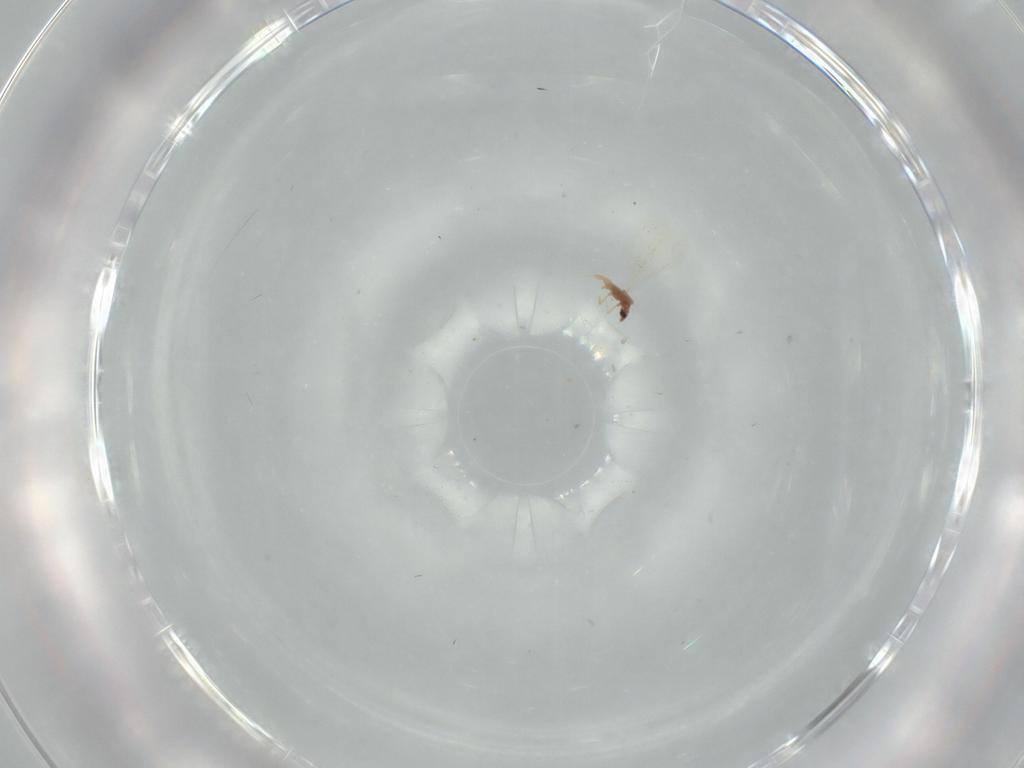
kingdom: Animalia
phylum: Arthropoda
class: Insecta
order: Hemiptera
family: Diaspididae
